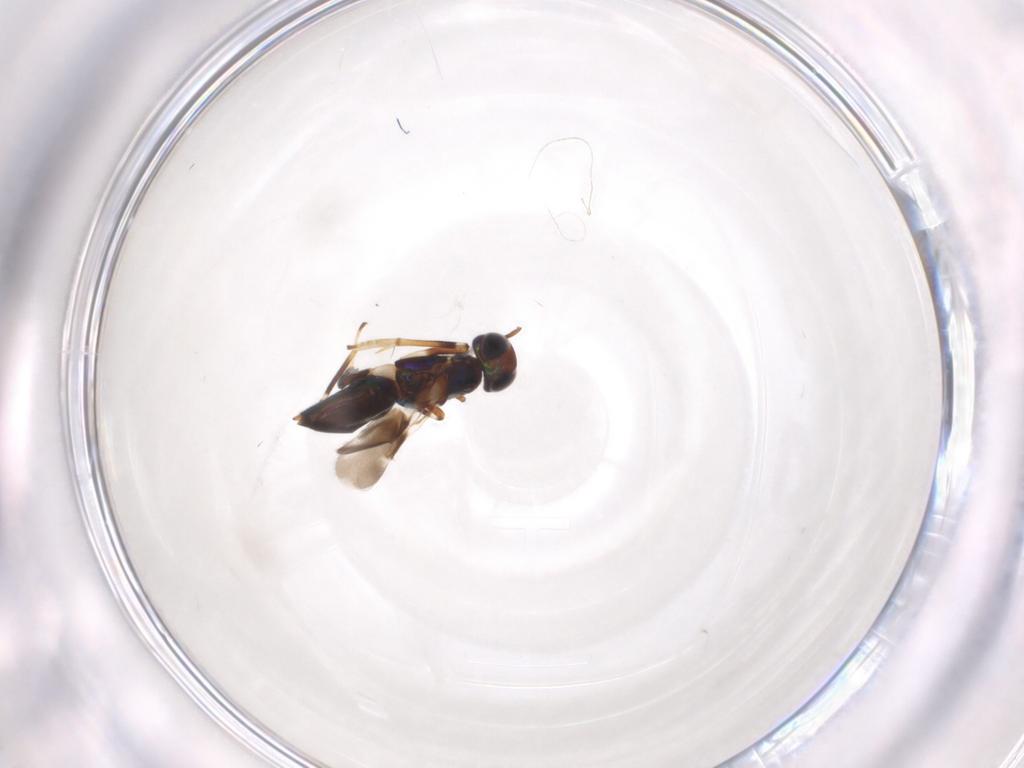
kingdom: Animalia
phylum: Arthropoda
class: Insecta
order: Hymenoptera
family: Encyrtidae
